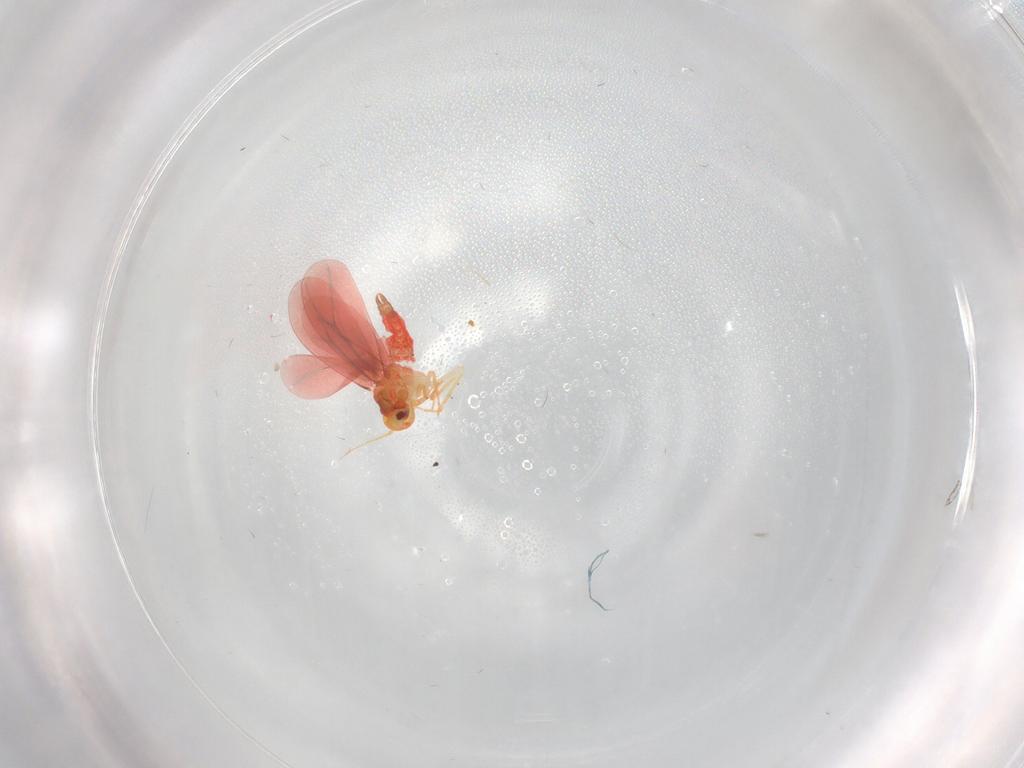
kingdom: Animalia
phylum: Arthropoda
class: Insecta
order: Hemiptera
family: Aleyrodidae
